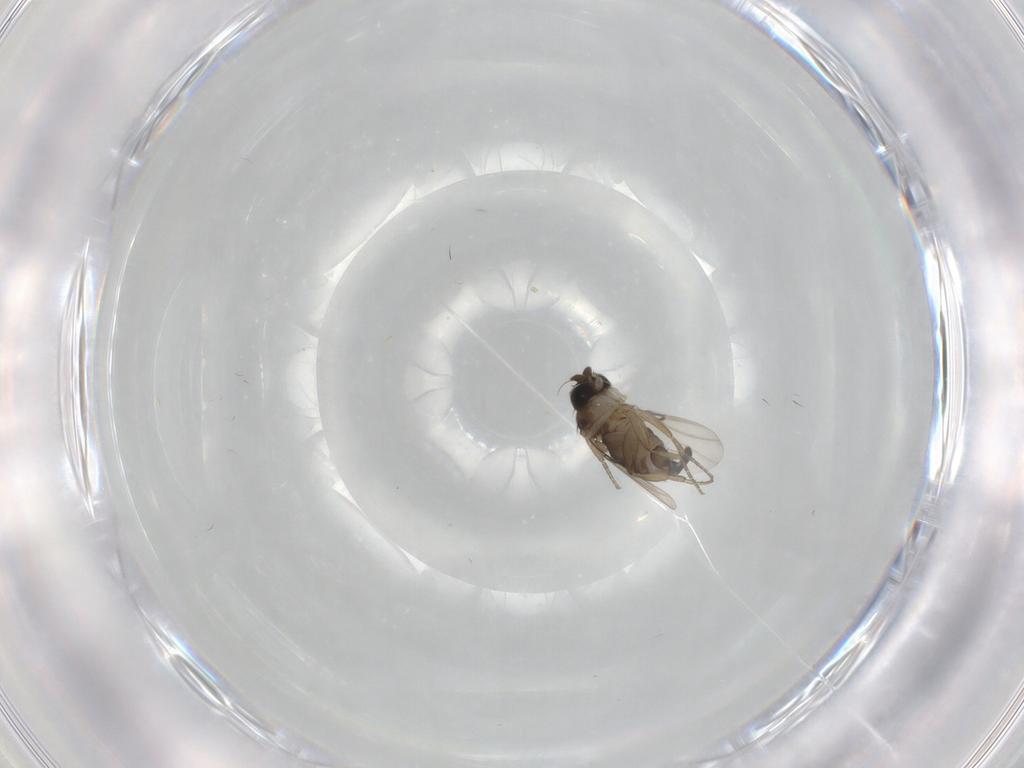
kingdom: Animalia
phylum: Arthropoda
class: Insecta
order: Diptera
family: Phoridae
